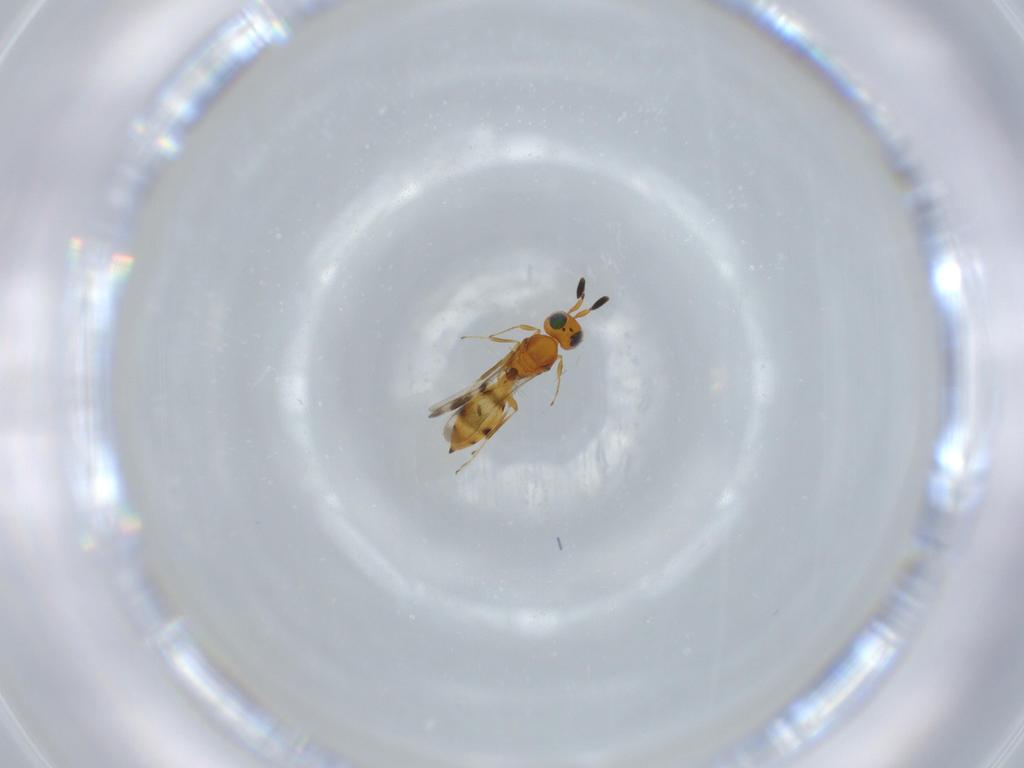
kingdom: Animalia
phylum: Arthropoda
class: Insecta
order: Hymenoptera
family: Scelionidae
